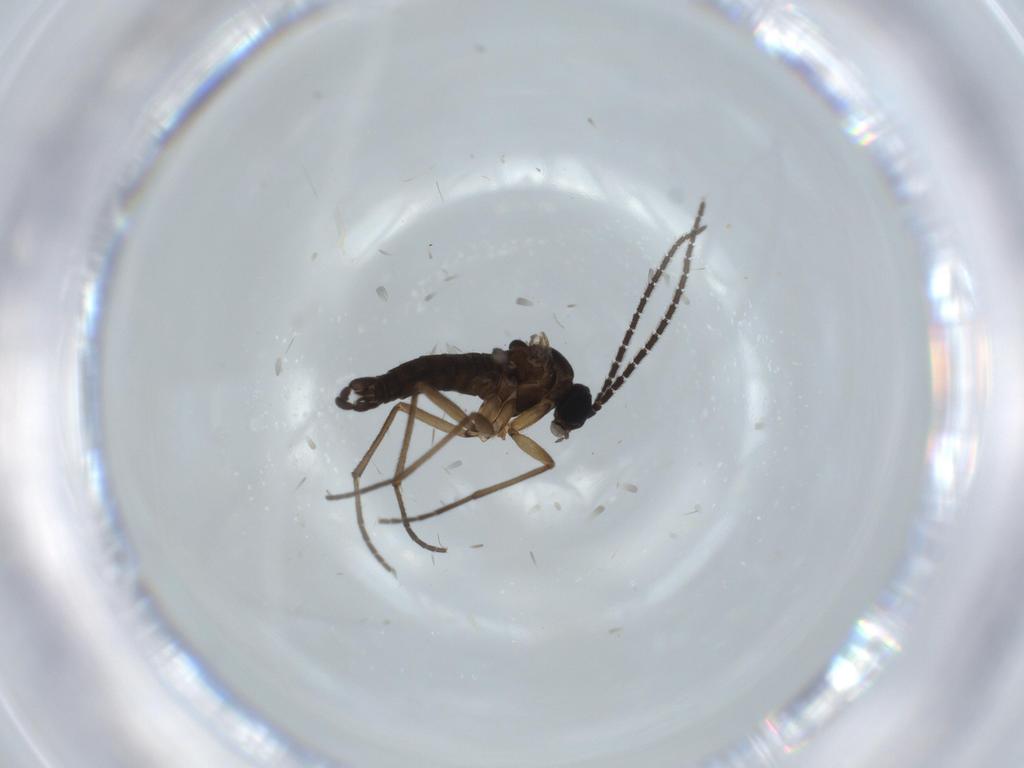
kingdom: Animalia
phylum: Arthropoda
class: Insecta
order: Diptera
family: Phoridae
